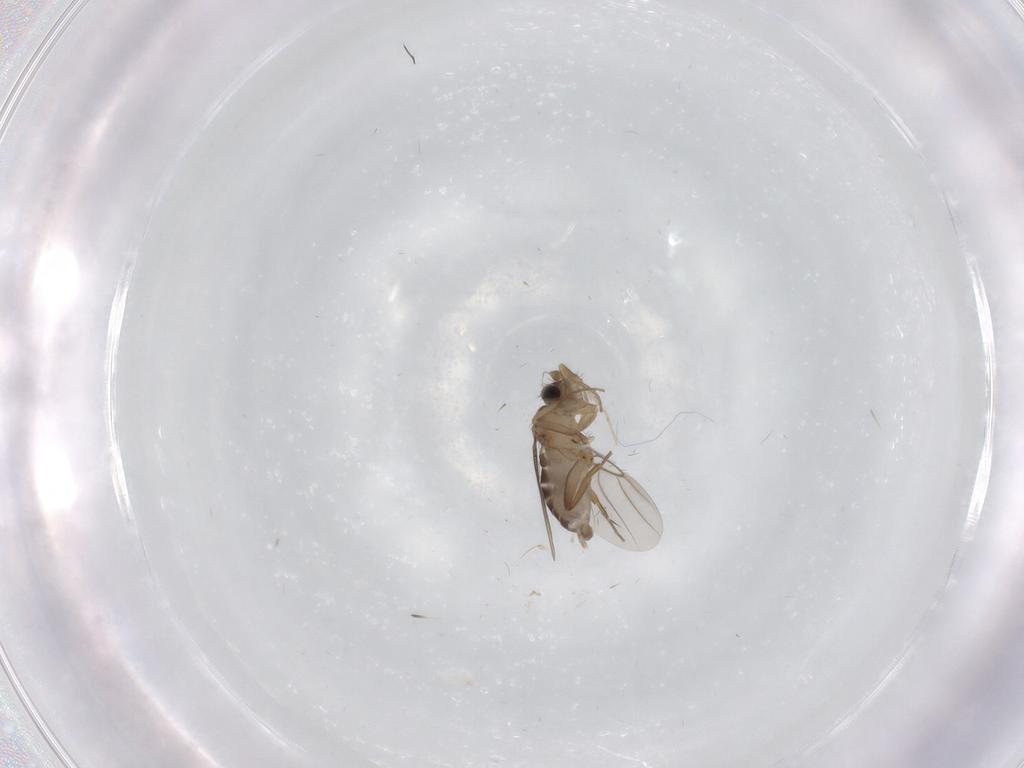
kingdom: Animalia
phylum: Arthropoda
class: Insecta
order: Diptera
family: Phoridae
